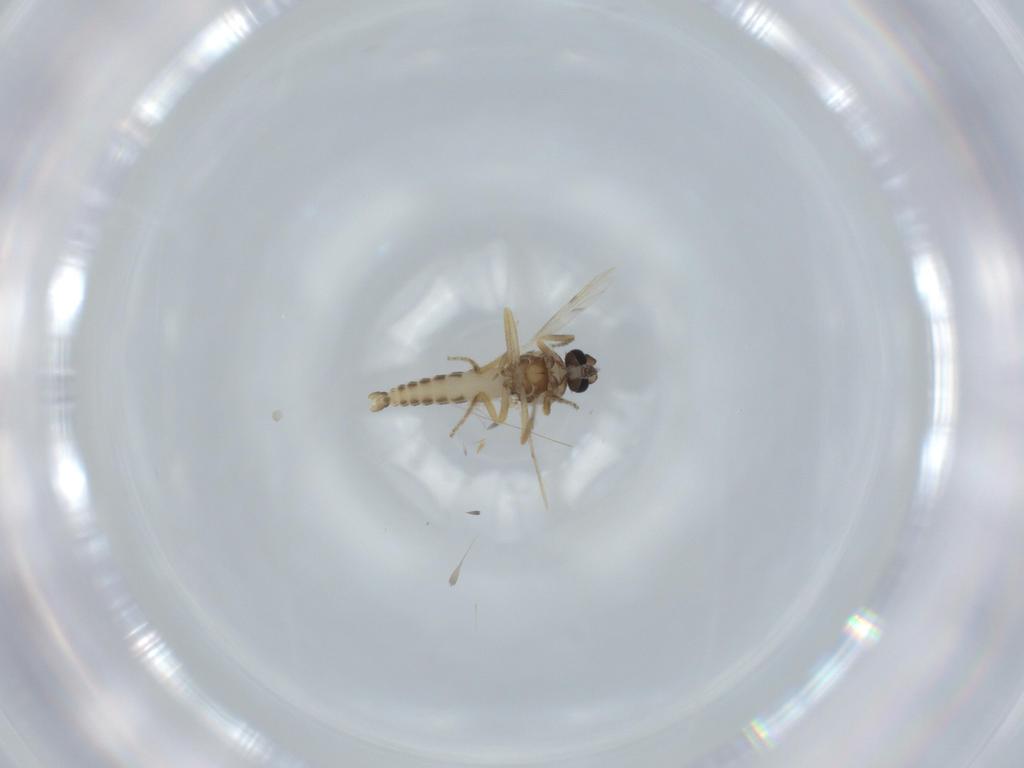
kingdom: Animalia
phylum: Arthropoda
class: Insecta
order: Diptera
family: Ceratopogonidae
